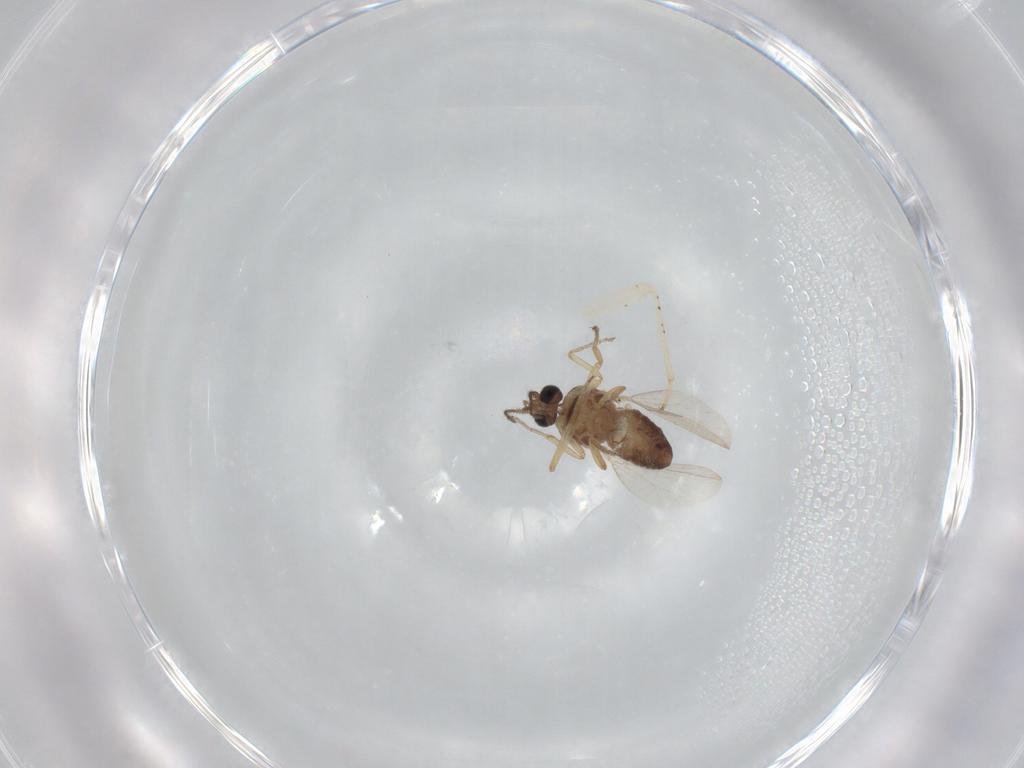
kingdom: Animalia
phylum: Arthropoda
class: Insecta
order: Diptera
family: Ceratopogonidae
